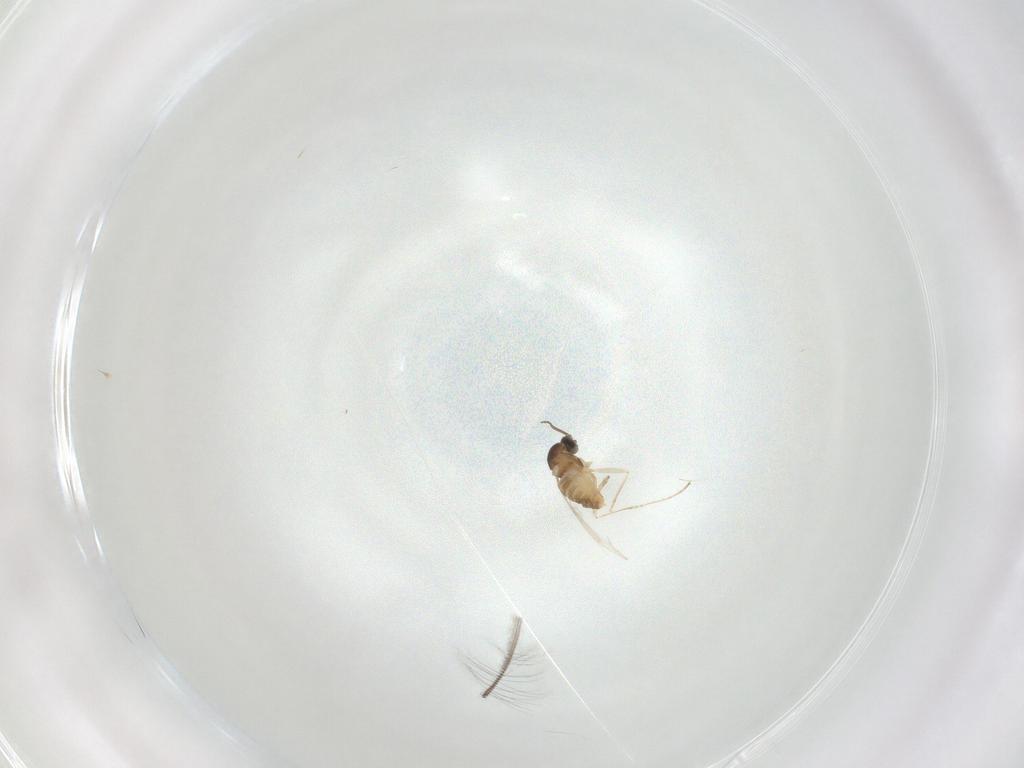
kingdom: Animalia
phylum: Arthropoda
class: Insecta
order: Diptera
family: Cecidomyiidae
